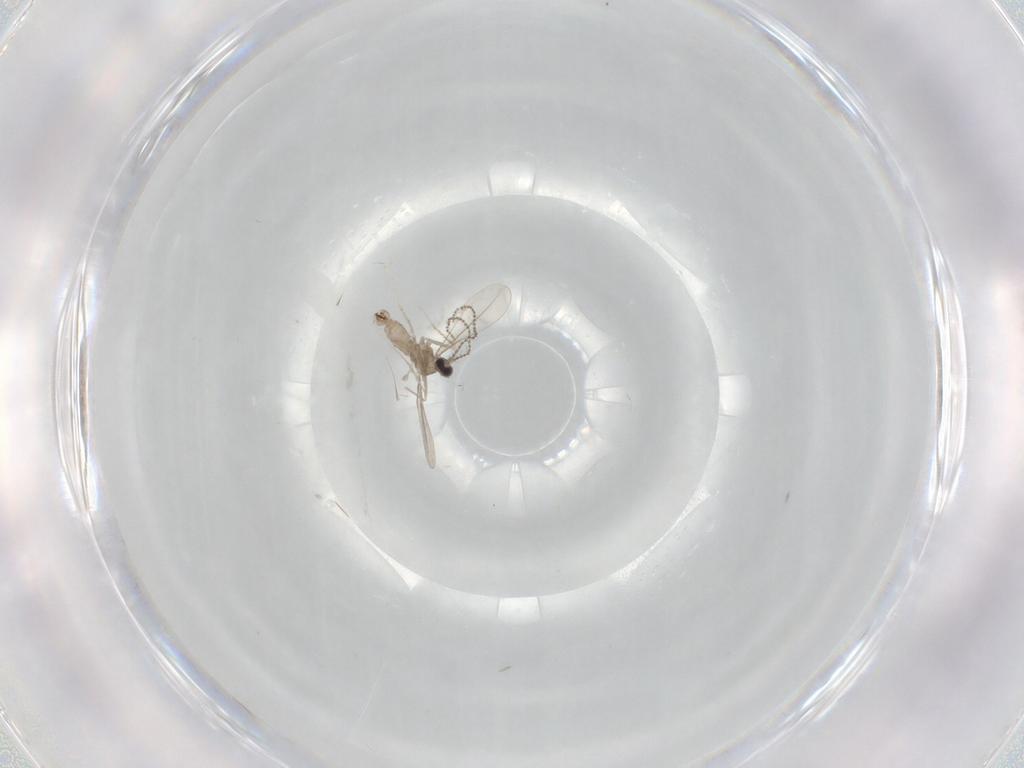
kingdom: Animalia
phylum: Arthropoda
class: Insecta
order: Diptera
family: Cecidomyiidae
